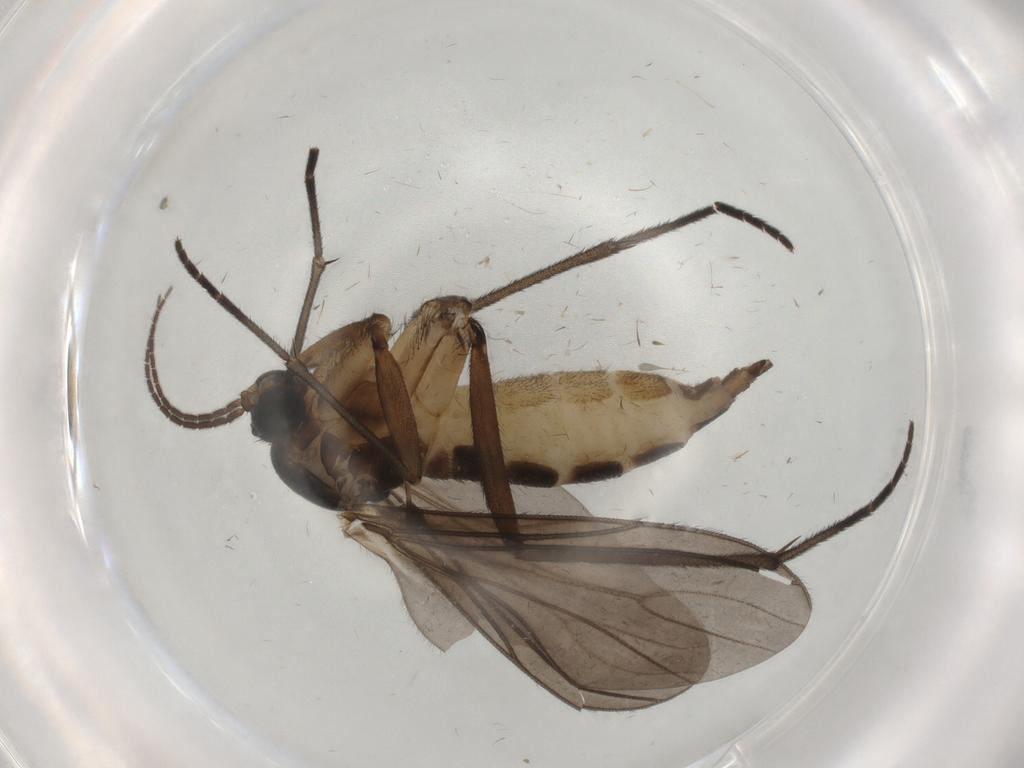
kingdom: Animalia
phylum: Arthropoda
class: Insecta
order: Diptera
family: Sciaridae
